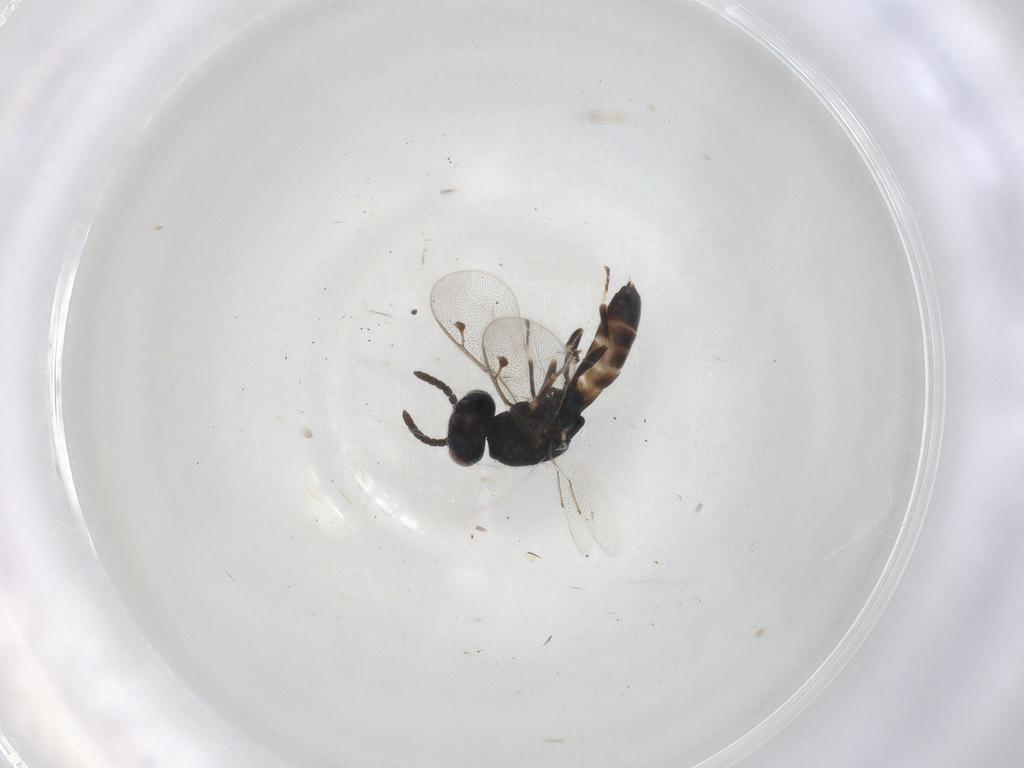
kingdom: Animalia
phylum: Arthropoda
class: Insecta
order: Hymenoptera
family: Pteromalidae
